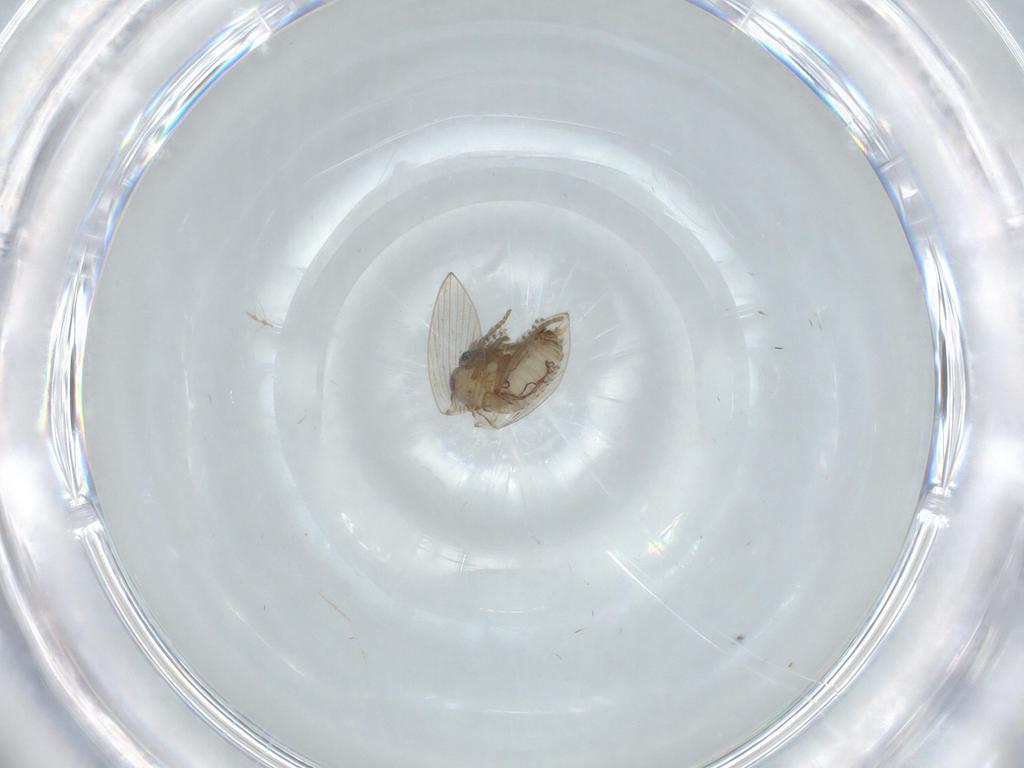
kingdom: Animalia
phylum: Arthropoda
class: Insecta
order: Diptera
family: Psychodidae
